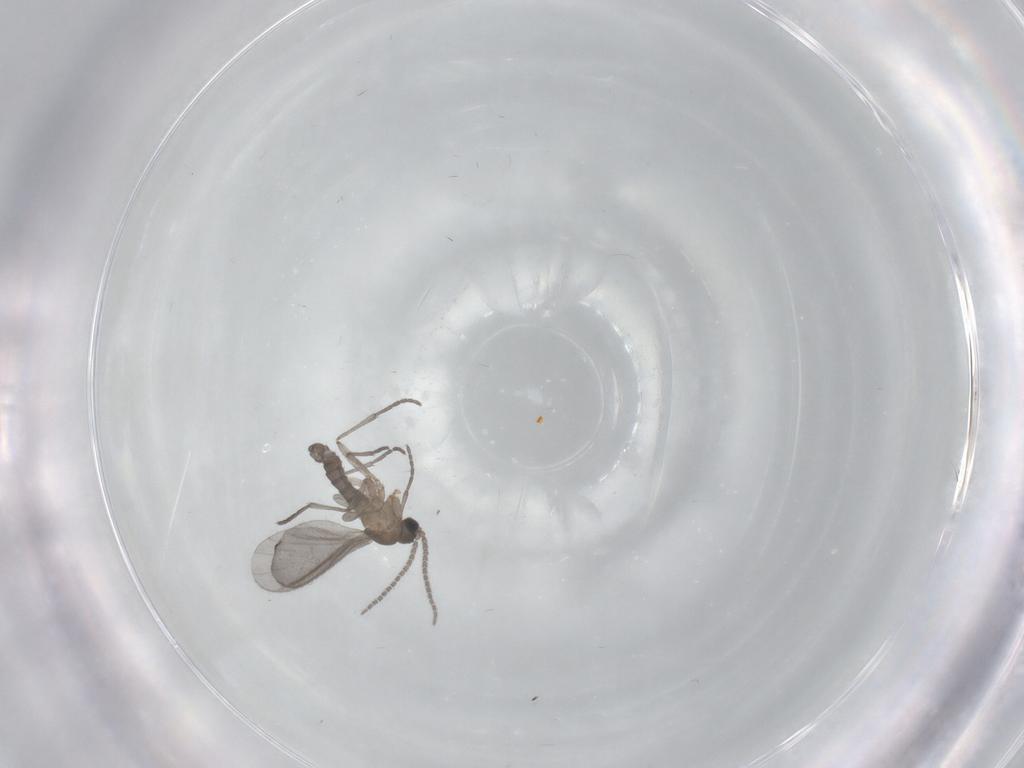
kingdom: Animalia
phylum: Arthropoda
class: Insecta
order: Diptera
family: Sciaridae
